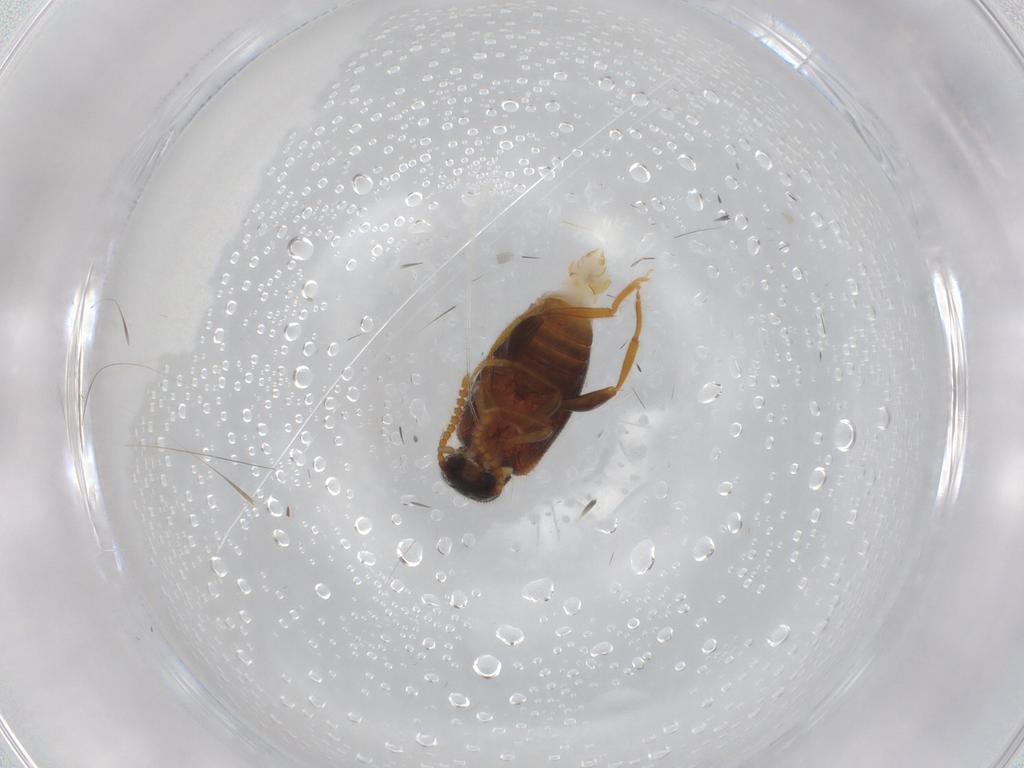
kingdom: Animalia
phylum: Arthropoda
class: Insecta
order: Coleoptera
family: Aderidae
